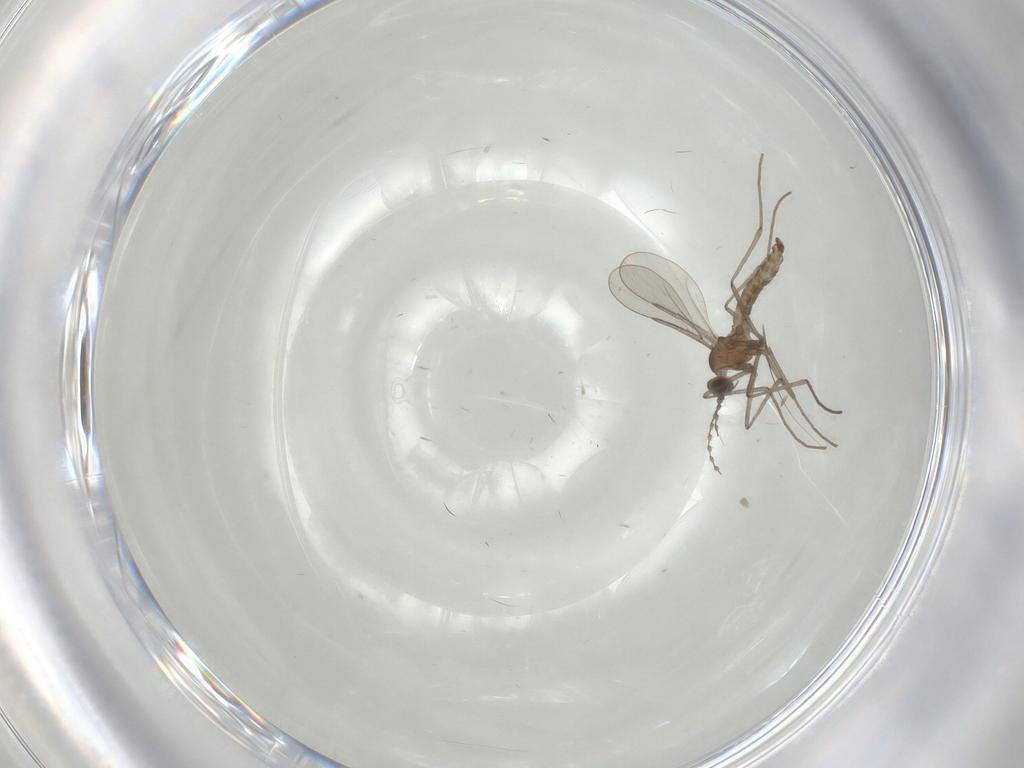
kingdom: Animalia
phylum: Arthropoda
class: Insecta
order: Diptera
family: Cecidomyiidae
